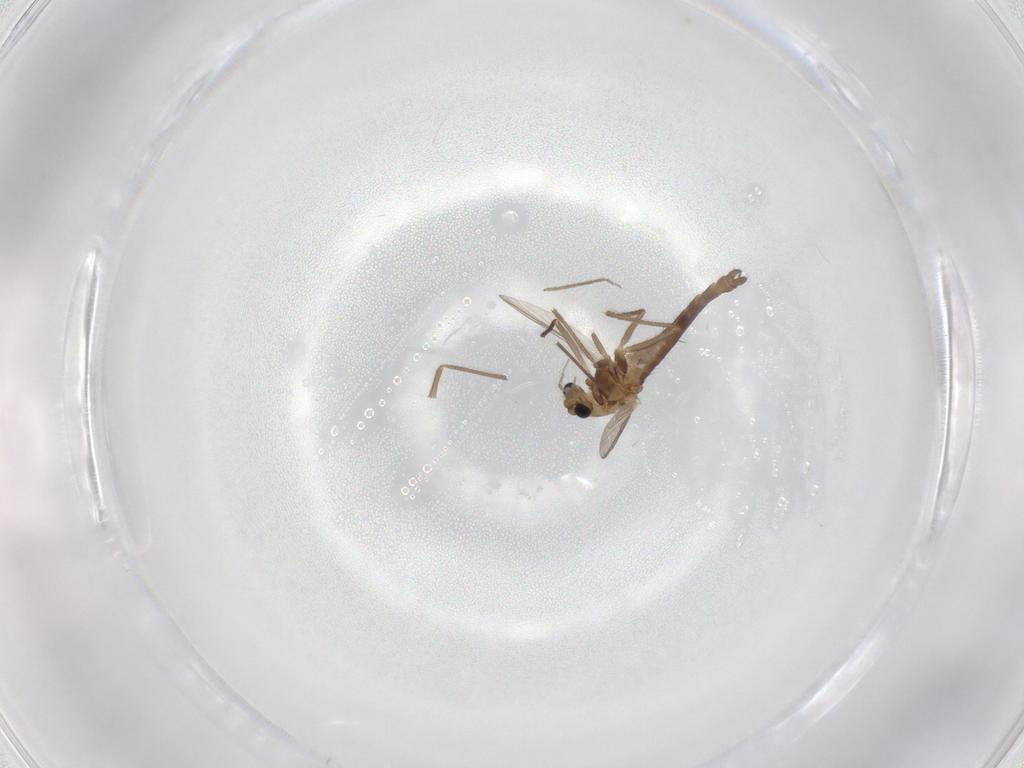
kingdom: Animalia
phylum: Arthropoda
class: Insecta
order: Diptera
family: Chironomidae
